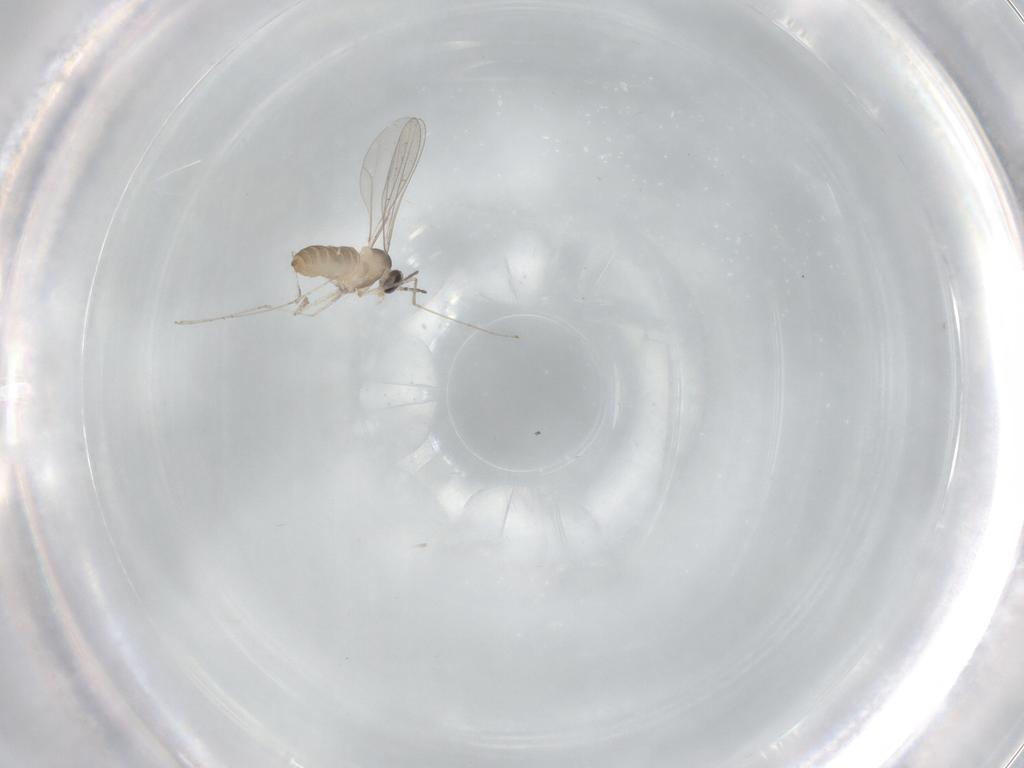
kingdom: Animalia
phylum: Arthropoda
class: Insecta
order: Diptera
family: Cecidomyiidae
